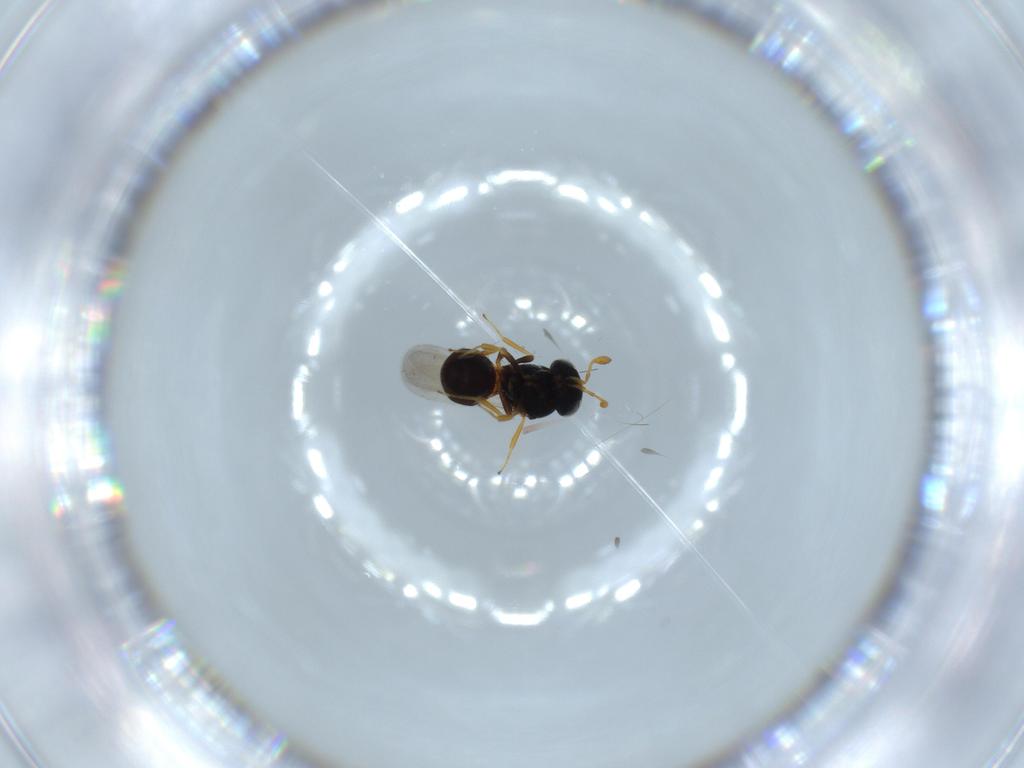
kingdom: Animalia
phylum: Arthropoda
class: Insecta
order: Hymenoptera
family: Scelionidae
